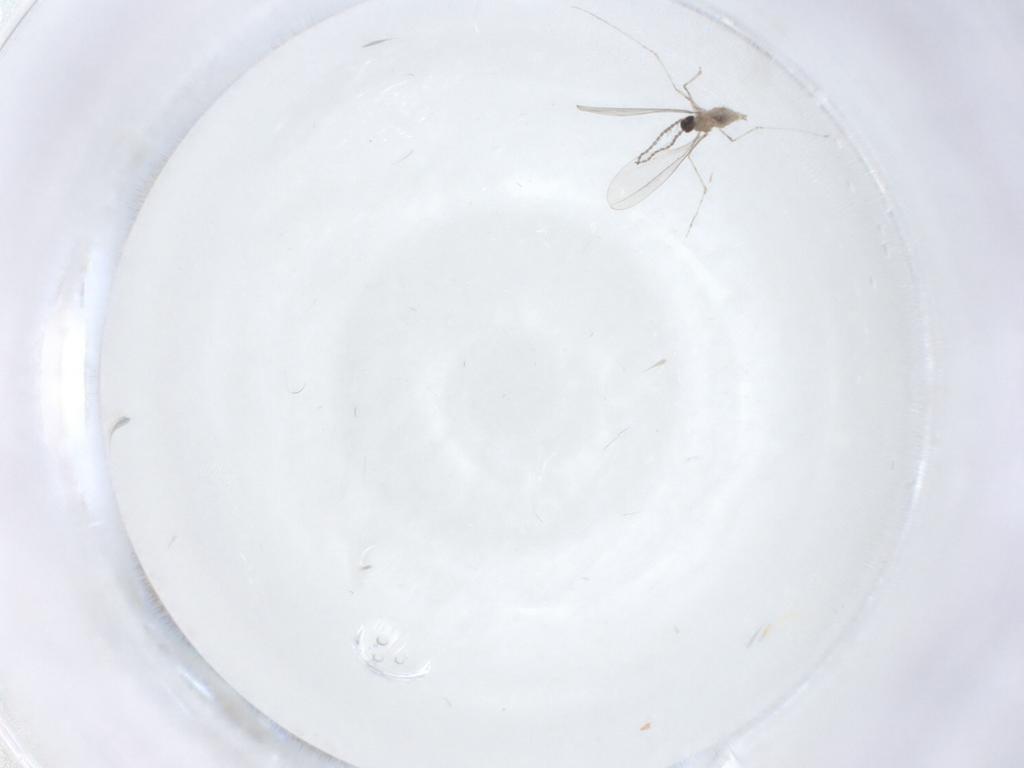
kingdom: Animalia
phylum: Arthropoda
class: Insecta
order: Diptera
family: Cecidomyiidae
